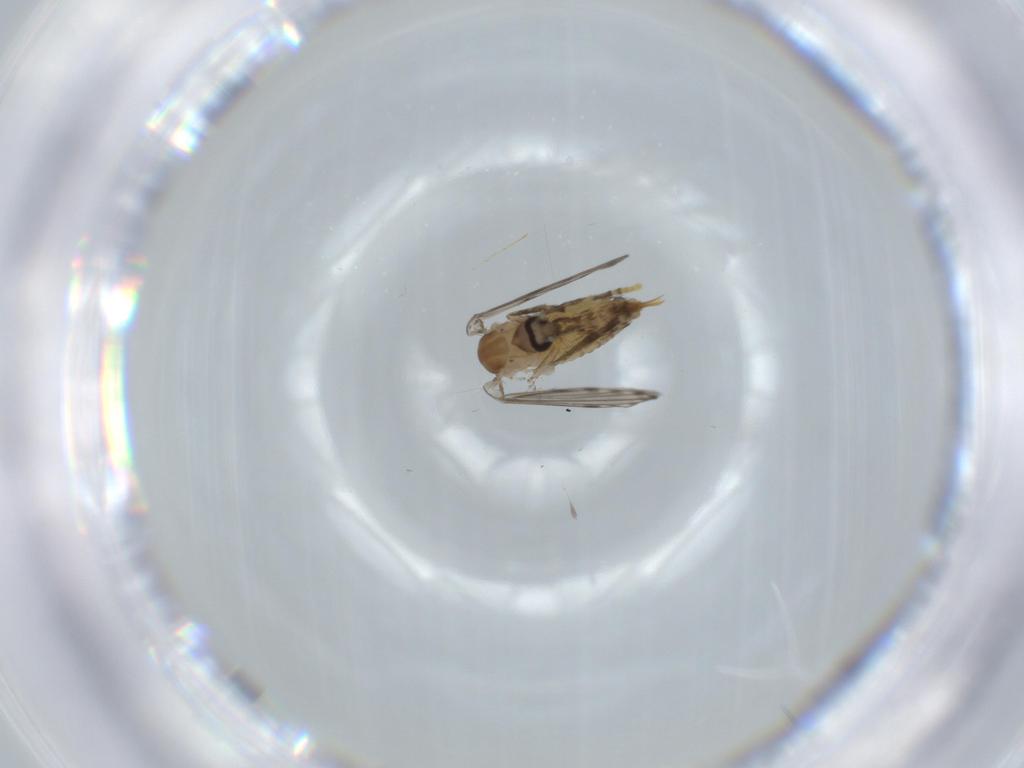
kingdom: Animalia
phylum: Arthropoda
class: Insecta
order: Diptera
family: Psychodidae
